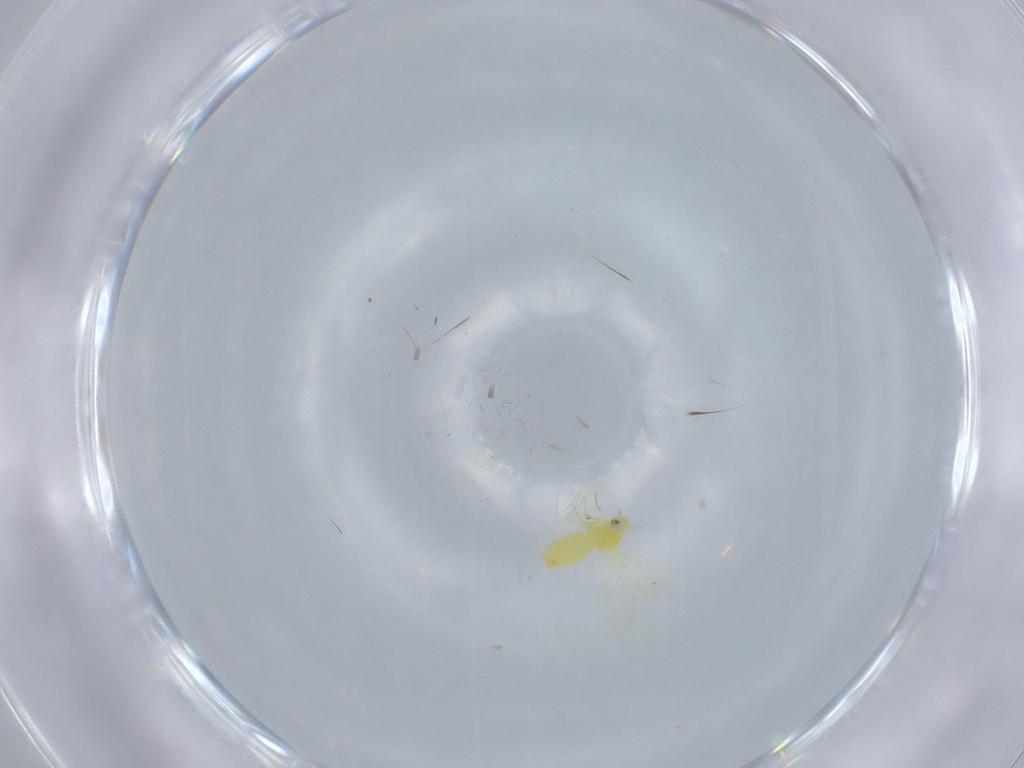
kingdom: Animalia
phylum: Arthropoda
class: Insecta
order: Hemiptera
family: Aleyrodidae
